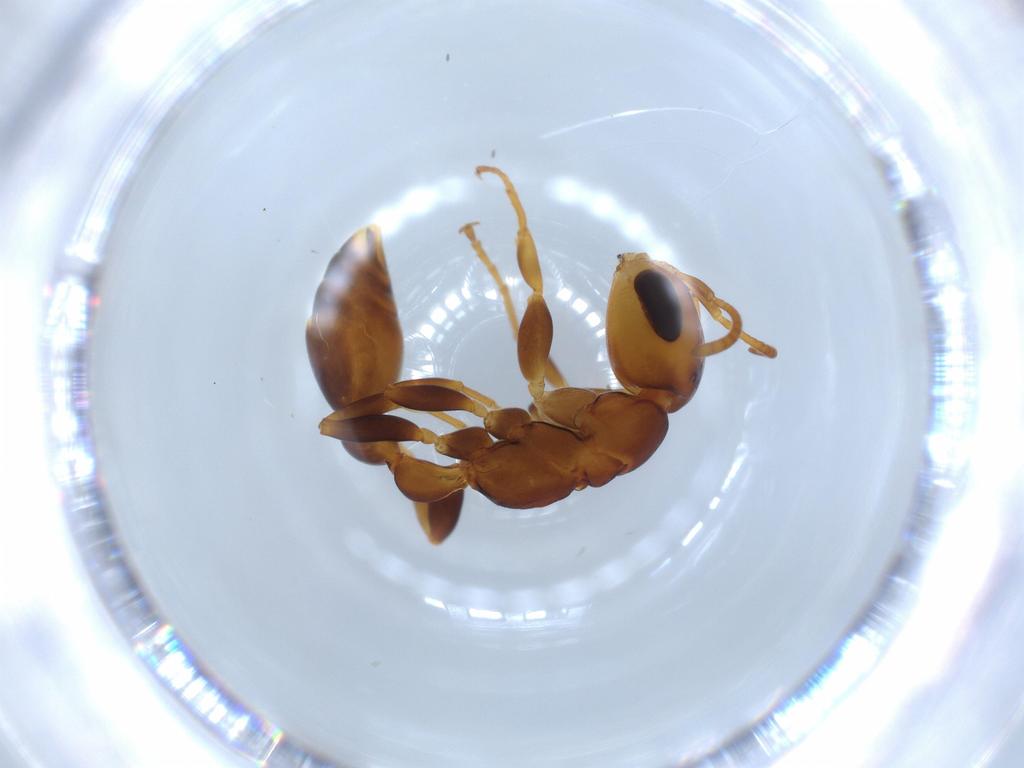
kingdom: Animalia
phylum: Arthropoda
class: Insecta
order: Hymenoptera
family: Formicidae
